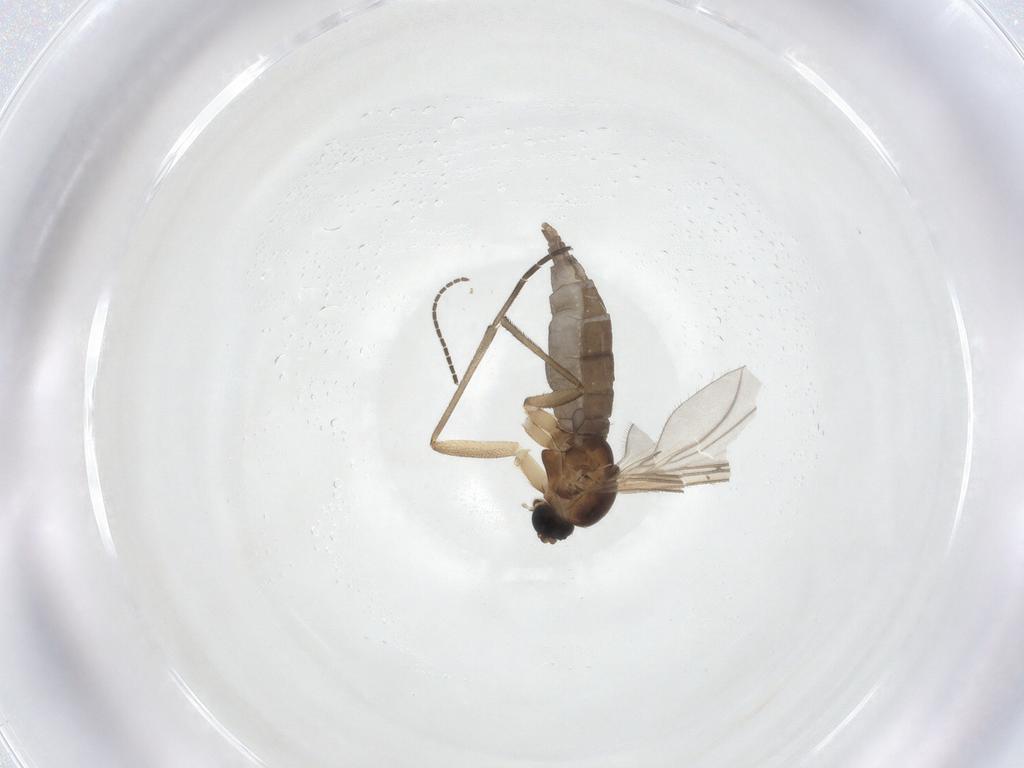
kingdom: Animalia
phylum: Arthropoda
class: Insecta
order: Diptera
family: Sciaridae
